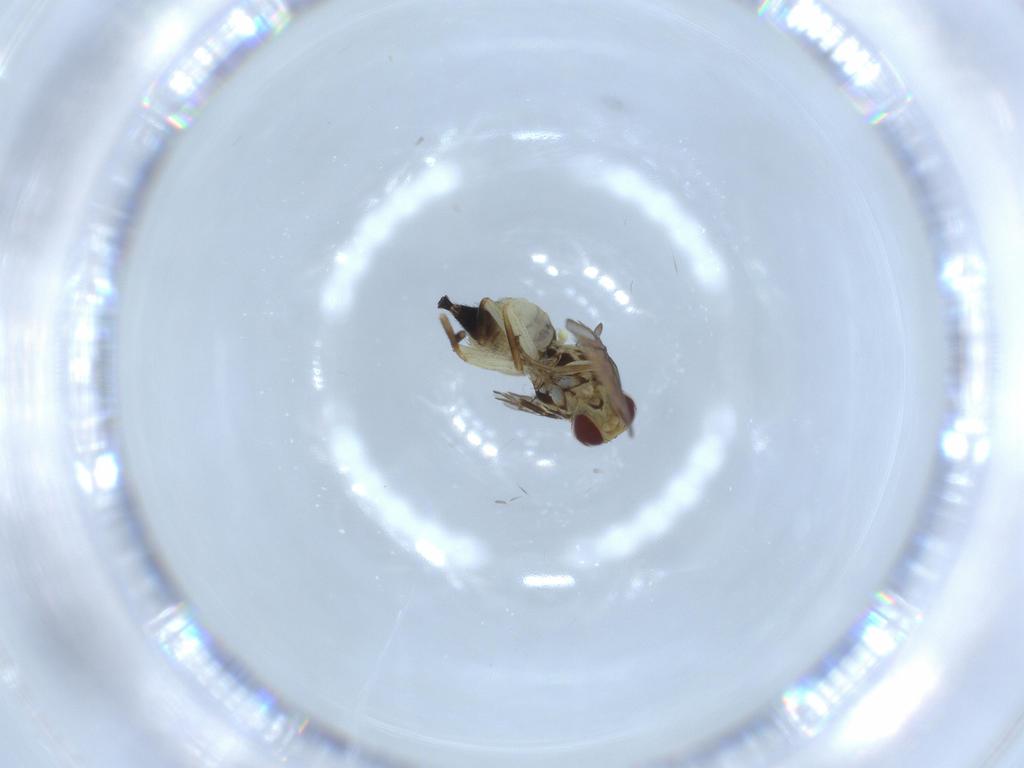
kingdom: Animalia
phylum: Arthropoda
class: Insecta
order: Diptera
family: Agromyzidae
